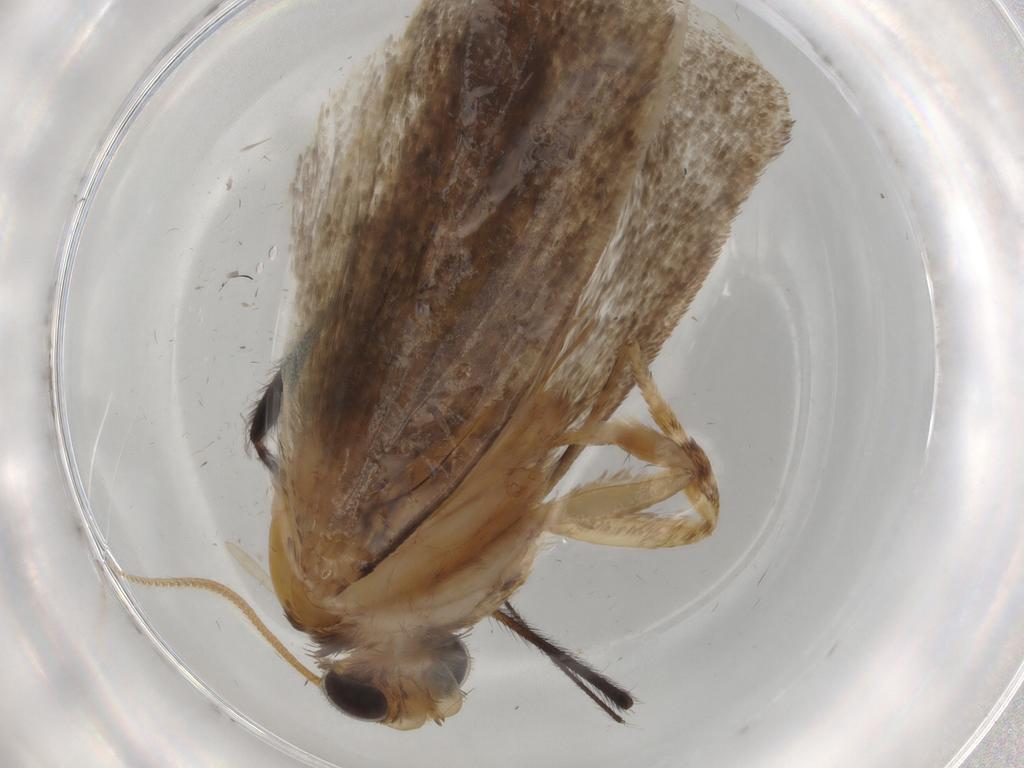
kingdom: Animalia
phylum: Arthropoda
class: Insecta
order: Lepidoptera
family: Tineidae
